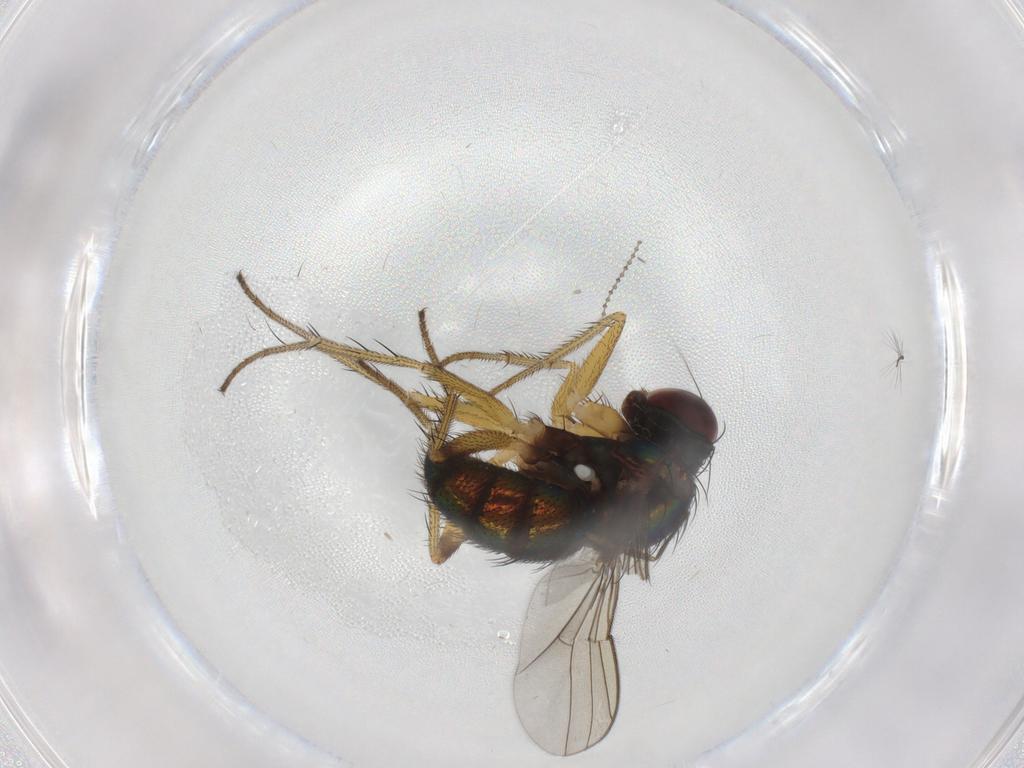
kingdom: Animalia
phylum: Arthropoda
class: Insecta
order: Diptera
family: Dolichopodidae
